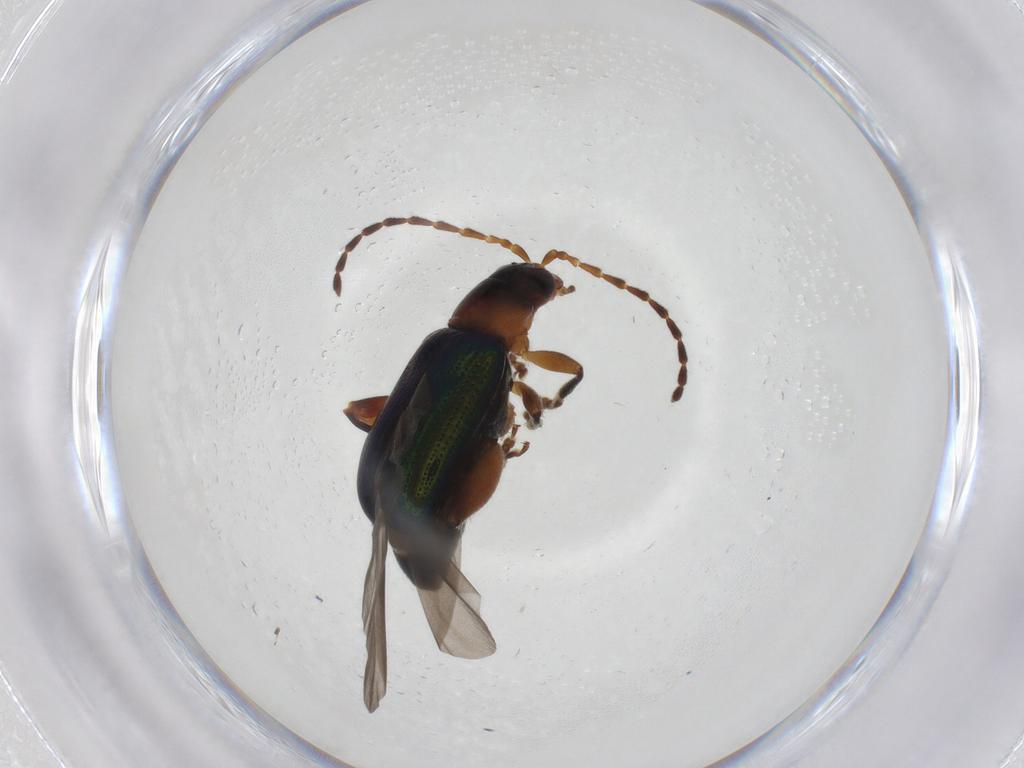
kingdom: Animalia
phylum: Arthropoda
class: Insecta
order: Coleoptera
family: Chrysomelidae
